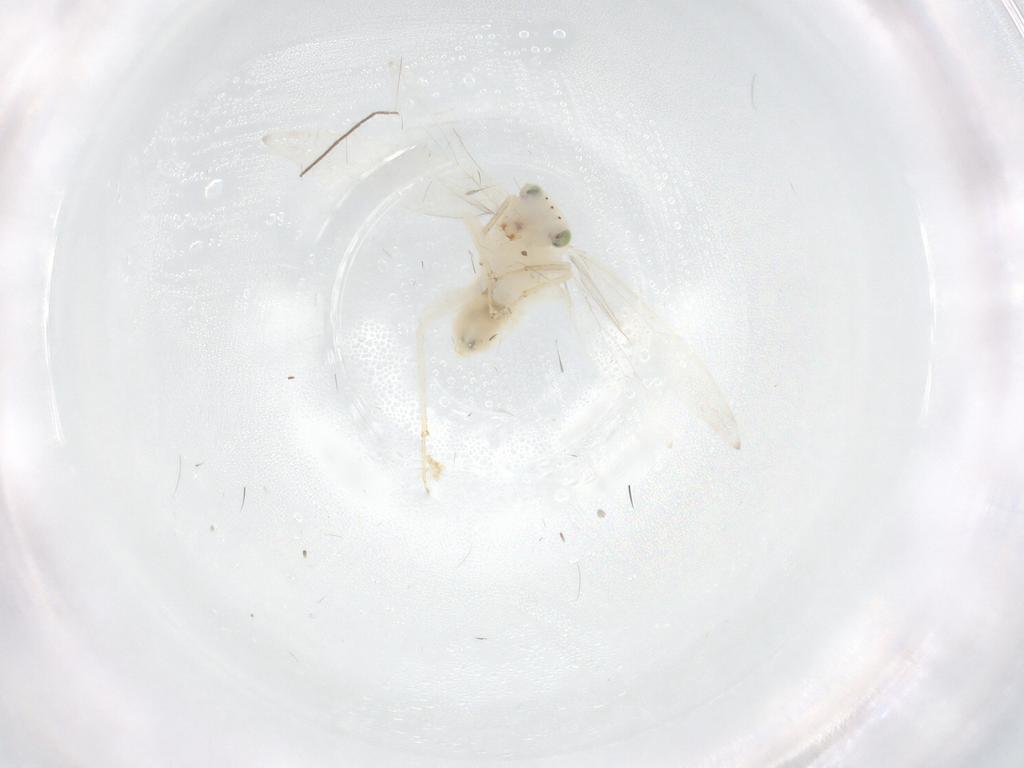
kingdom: Animalia
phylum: Arthropoda
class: Insecta
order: Psocodea
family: Lepidopsocidae
